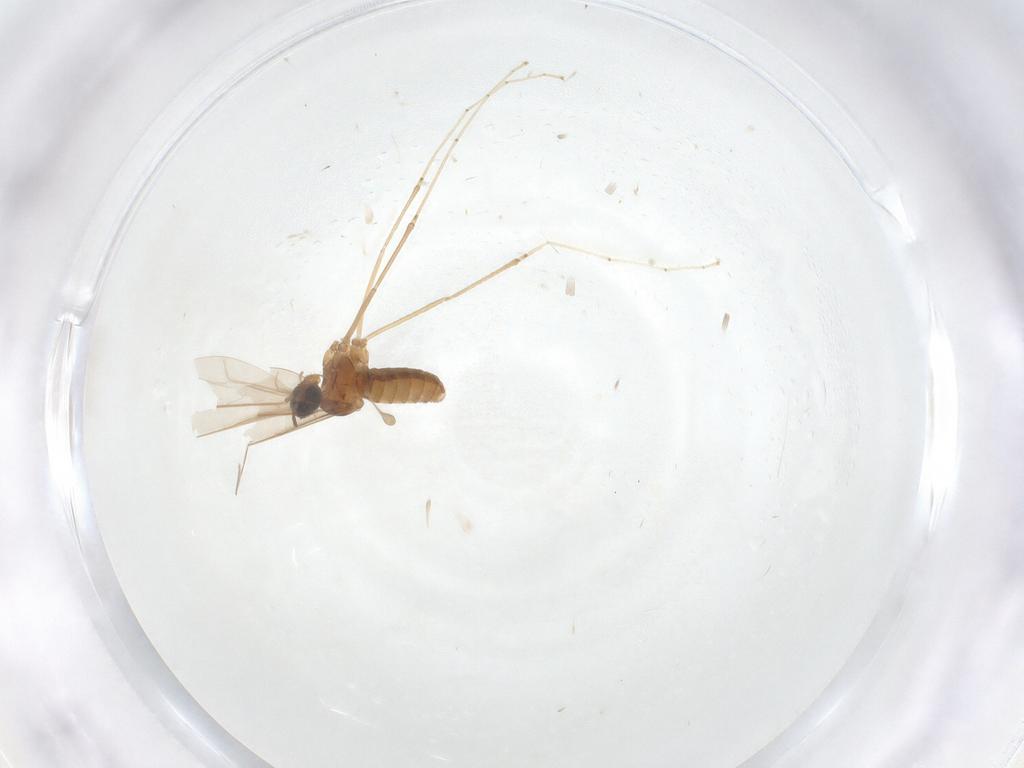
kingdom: Animalia
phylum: Arthropoda
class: Insecta
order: Diptera
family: Cecidomyiidae
